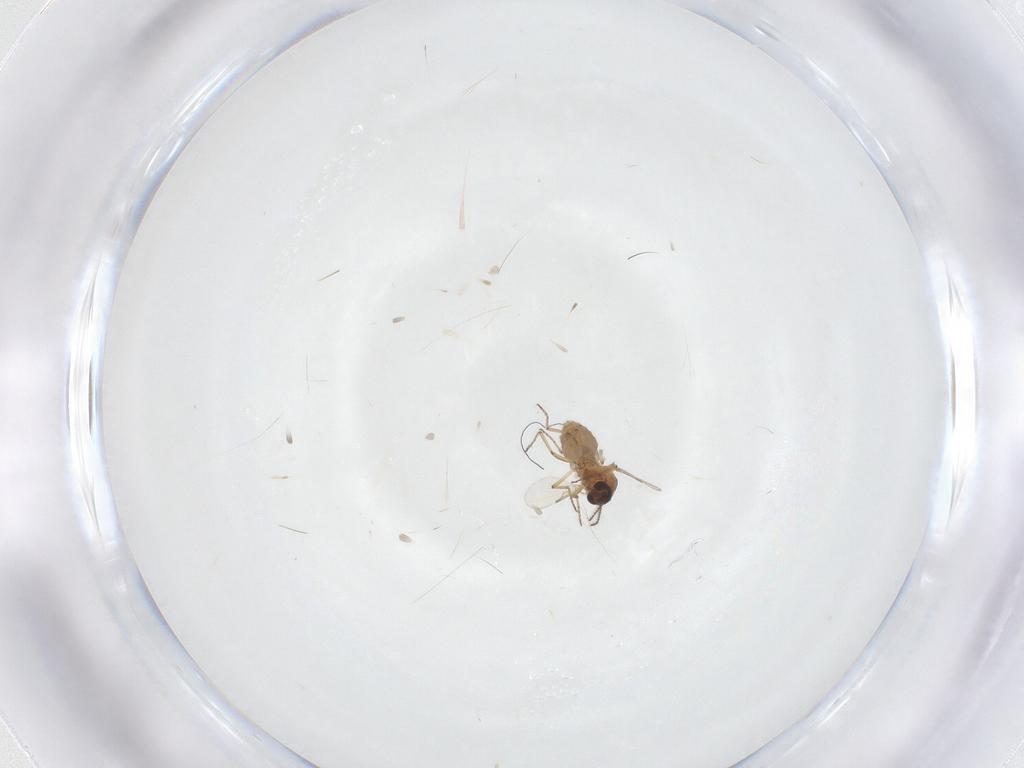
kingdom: Animalia
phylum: Arthropoda
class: Insecta
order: Diptera
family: Ceratopogonidae
